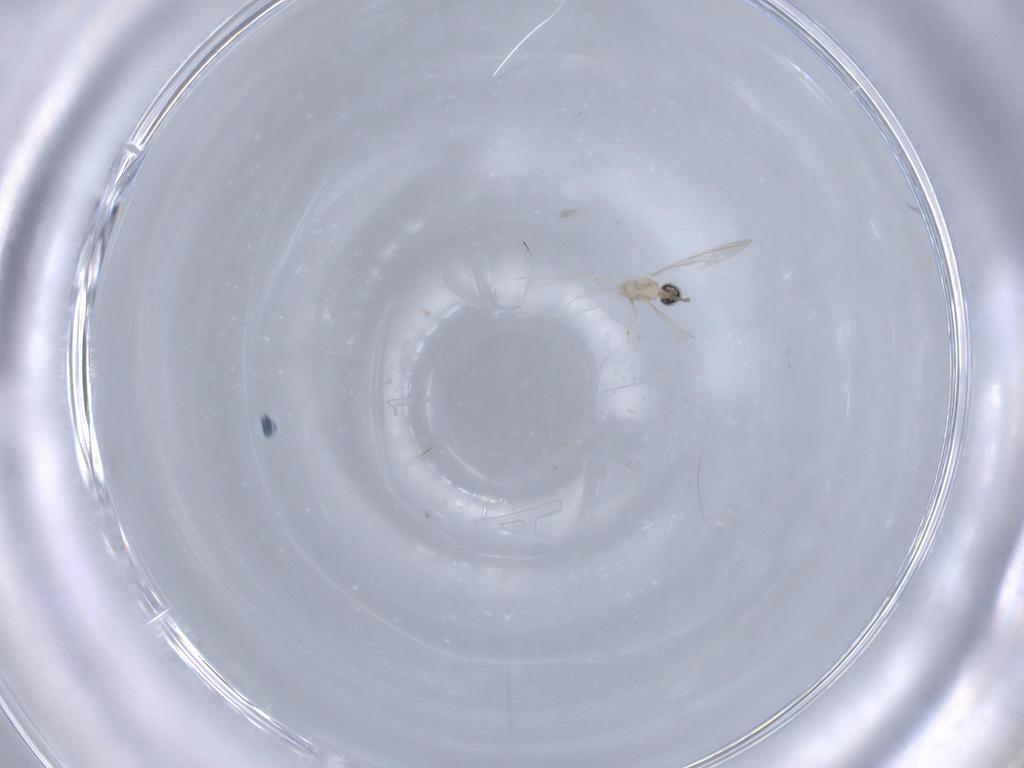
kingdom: Animalia
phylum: Arthropoda
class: Insecta
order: Diptera
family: Cecidomyiidae
